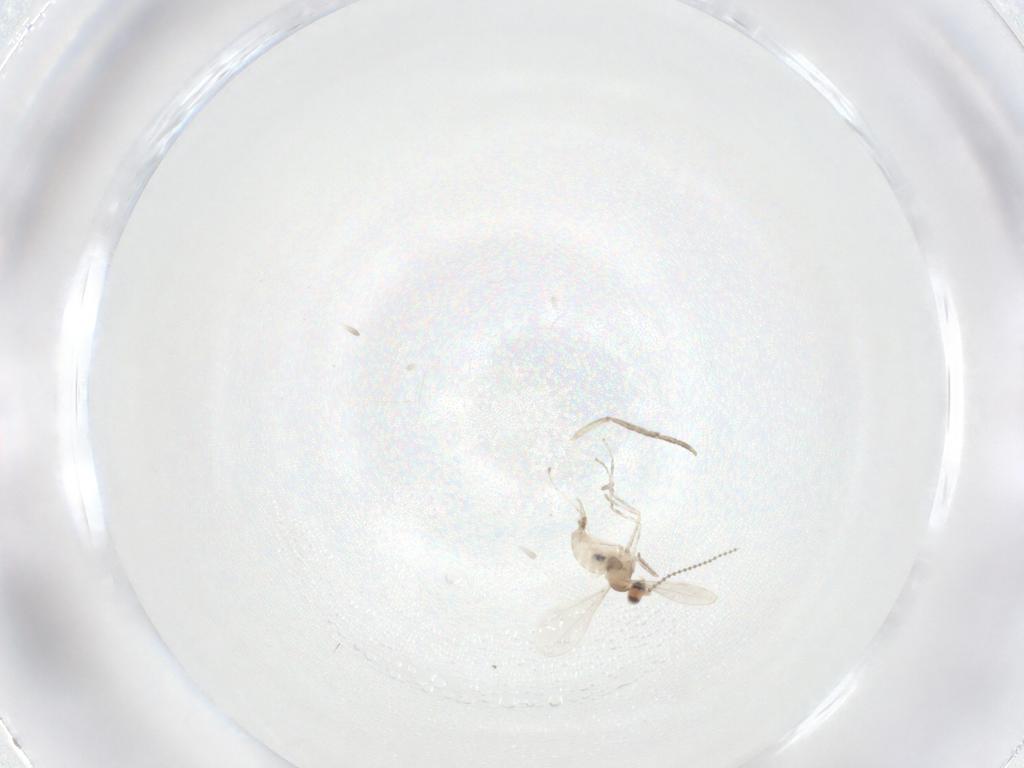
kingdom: Animalia
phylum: Arthropoda
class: Insecta
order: Diptera
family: Cecidomyiidae
